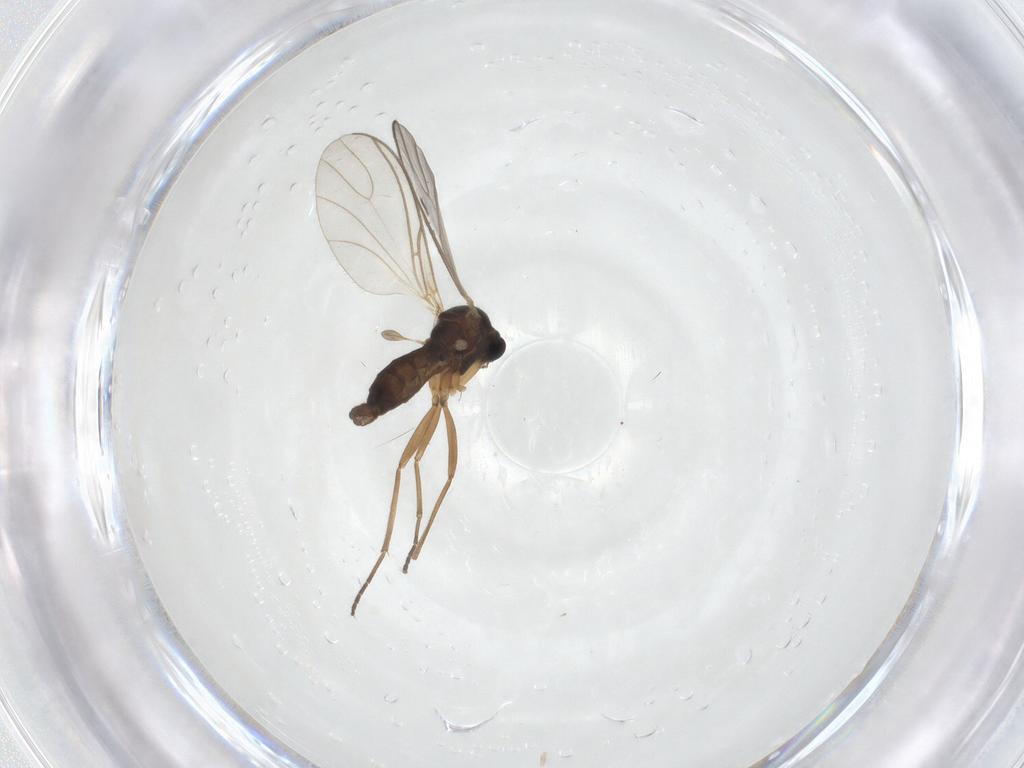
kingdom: Animalia
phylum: Arthropoda
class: Insecta
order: Diptera
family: Sciaridae
